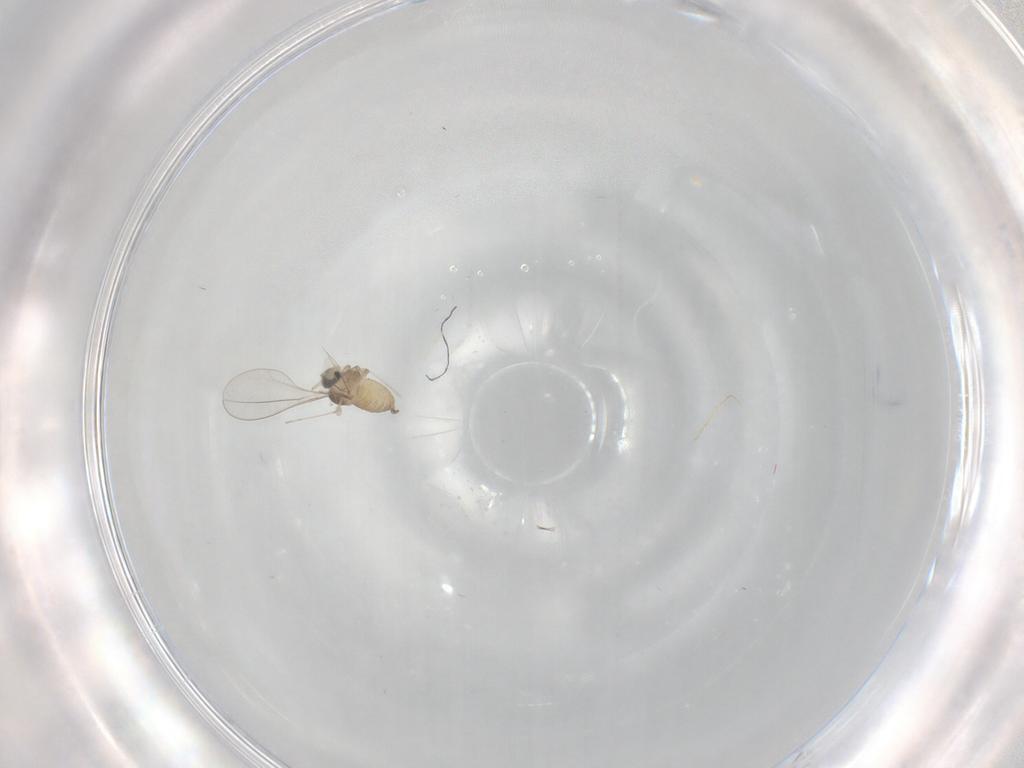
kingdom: Animalia
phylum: Arthropoda
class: Insecta
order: Diptera
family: Cecidomyiidae
